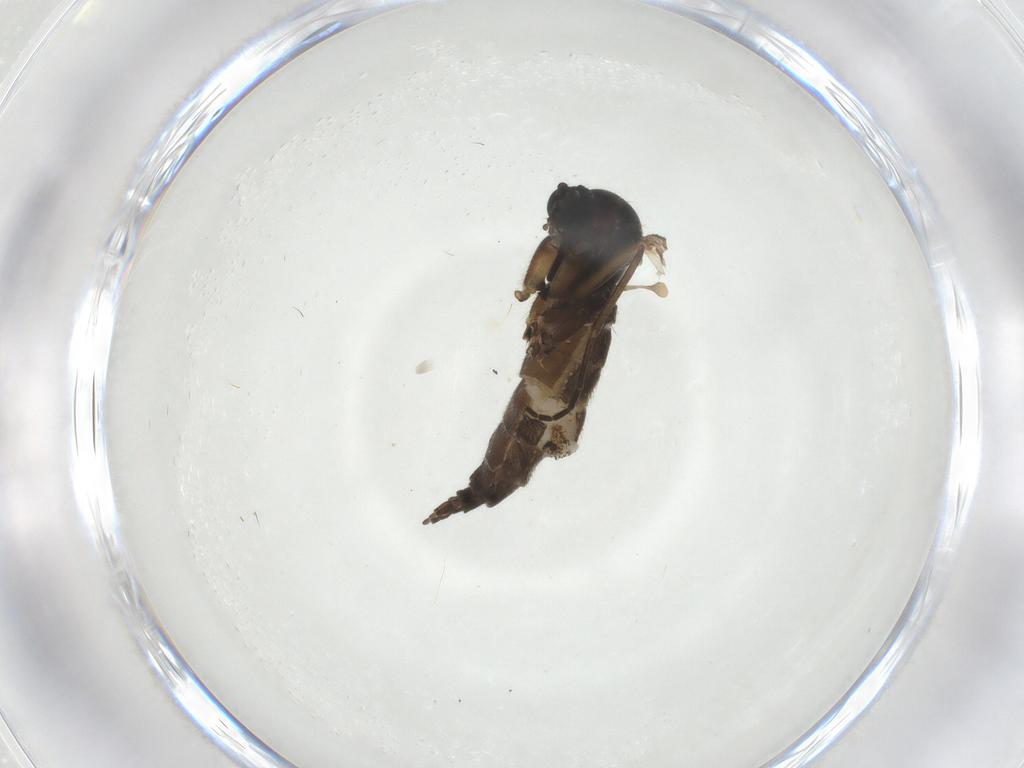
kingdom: Animalia
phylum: Arthropoda
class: Insecta
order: Diptera
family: Sciaridae
